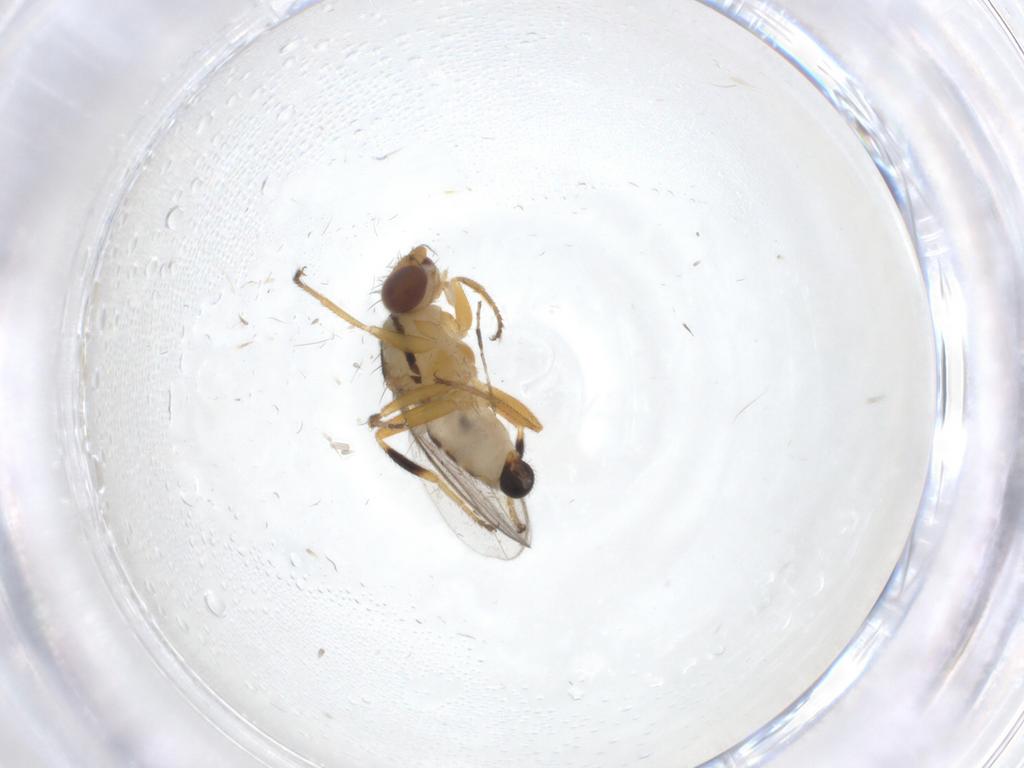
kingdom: Animalia
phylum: Arthropoda
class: Insecta
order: Diptera
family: Chloropidae
